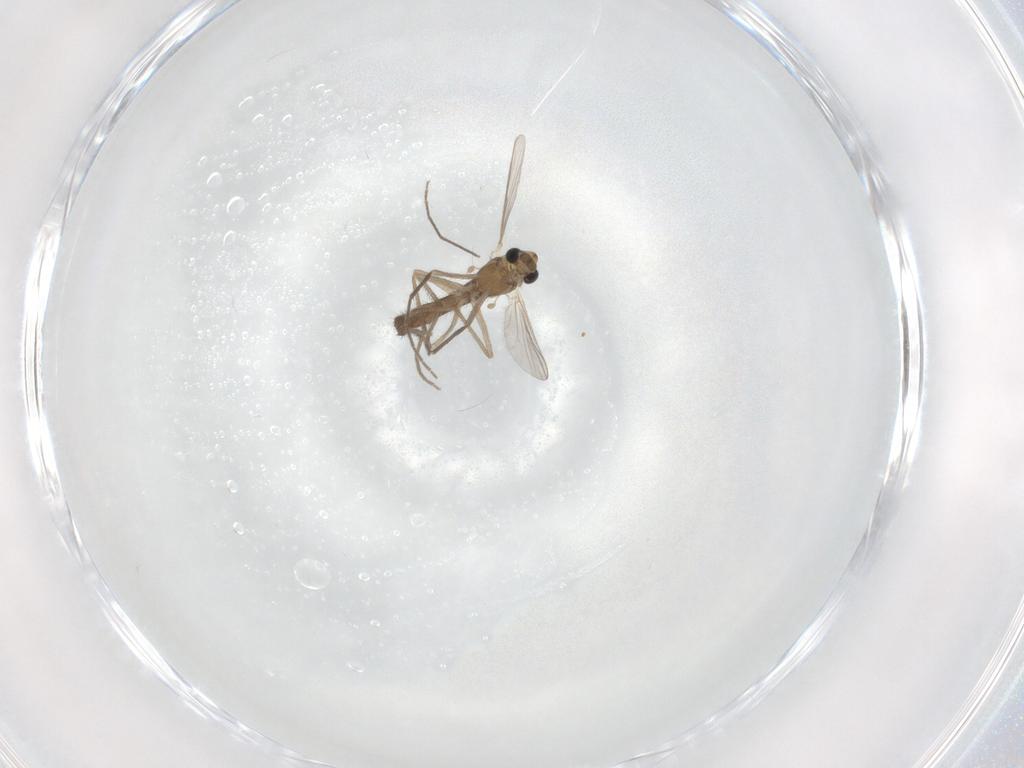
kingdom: Animalia
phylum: Arthropoda
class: Insecta
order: Diptera
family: Chironomidae
